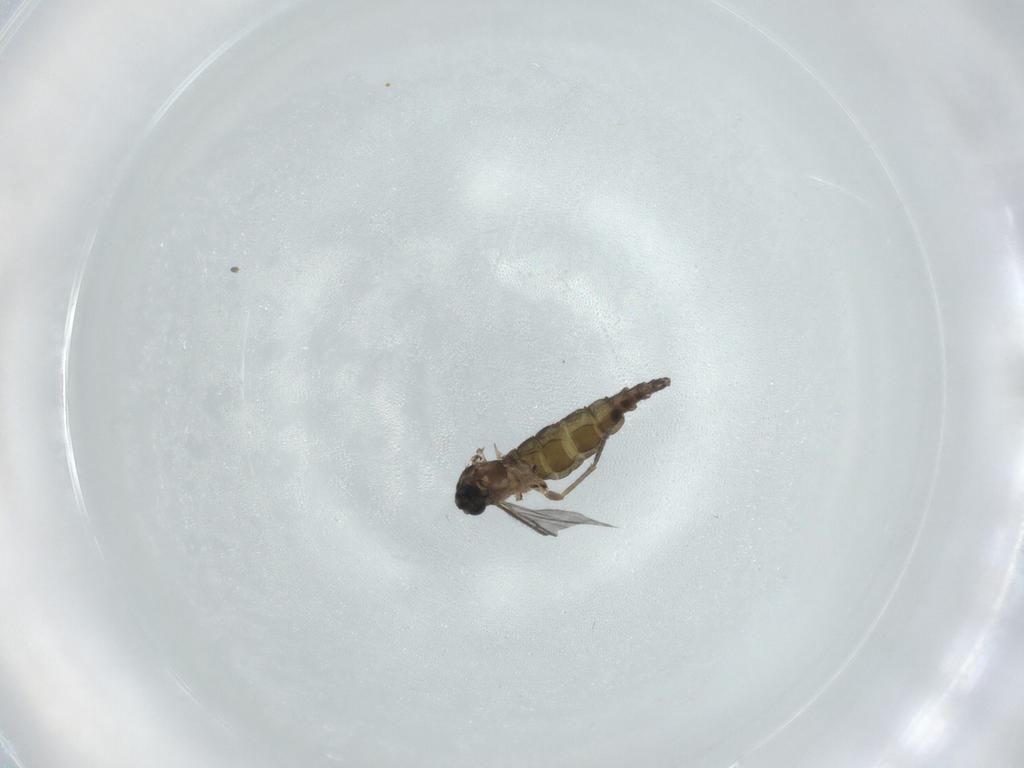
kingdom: Animalia
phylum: Arthropoda
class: Insecta
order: Diptera
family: Sciaridae
